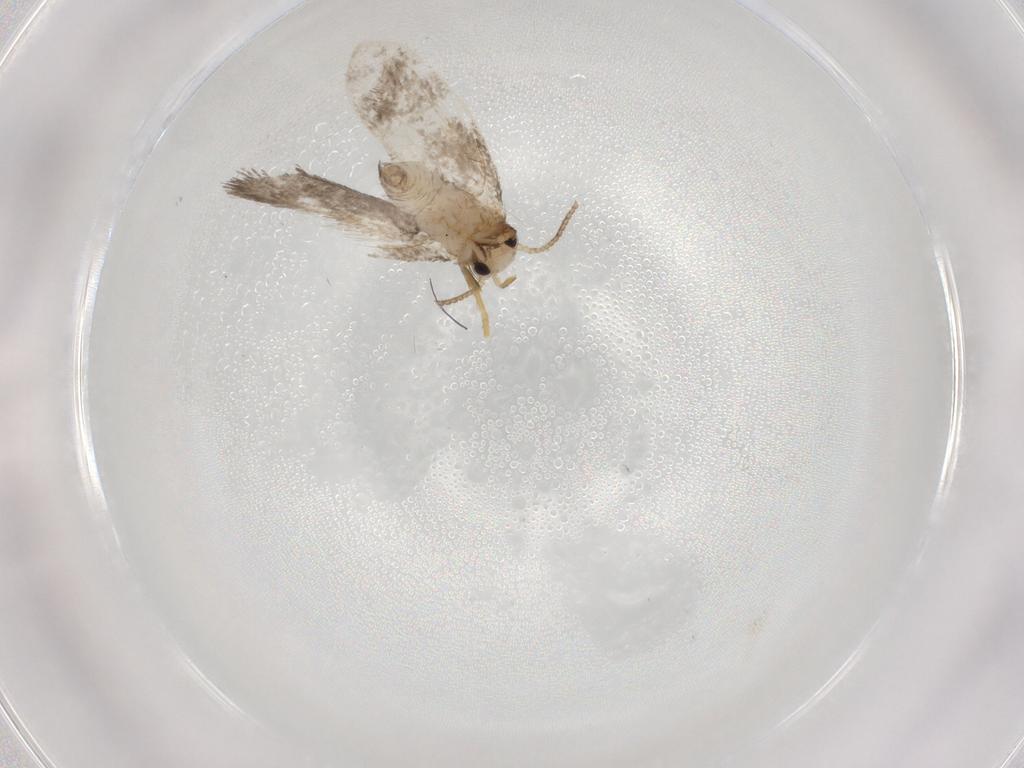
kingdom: Animalia
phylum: Arthropoda
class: Insecta
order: Lepidoptera
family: Psychidae
